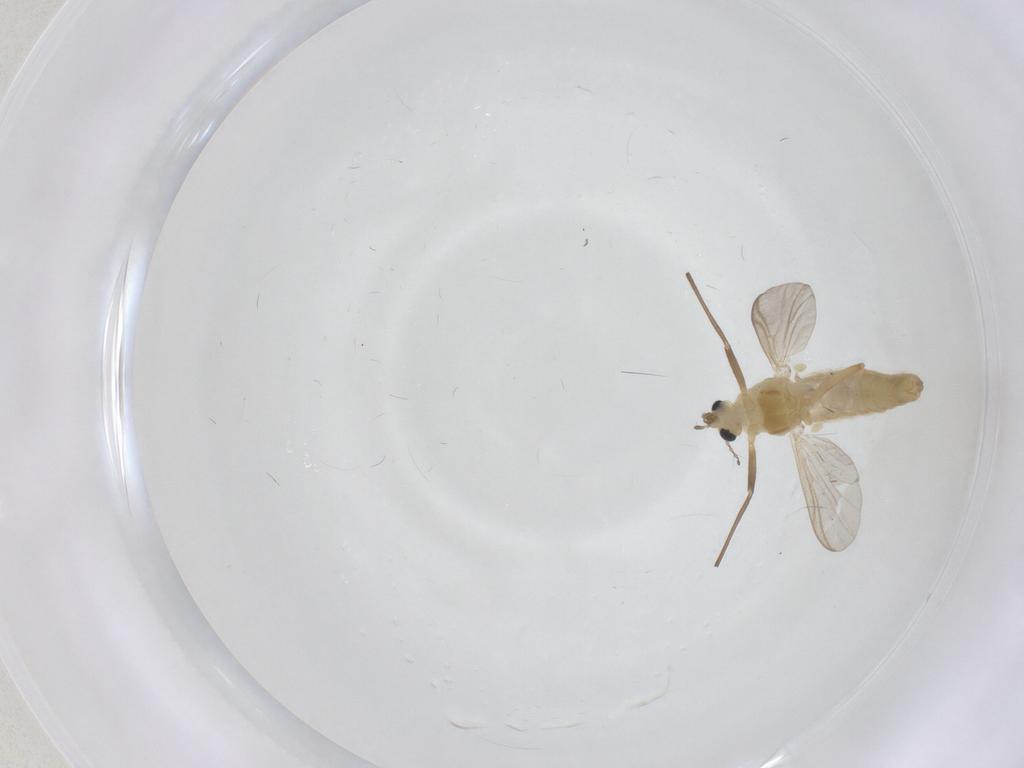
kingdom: Animalia
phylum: Arthropoda
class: Insecta
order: Diptera
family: Chironomidae
